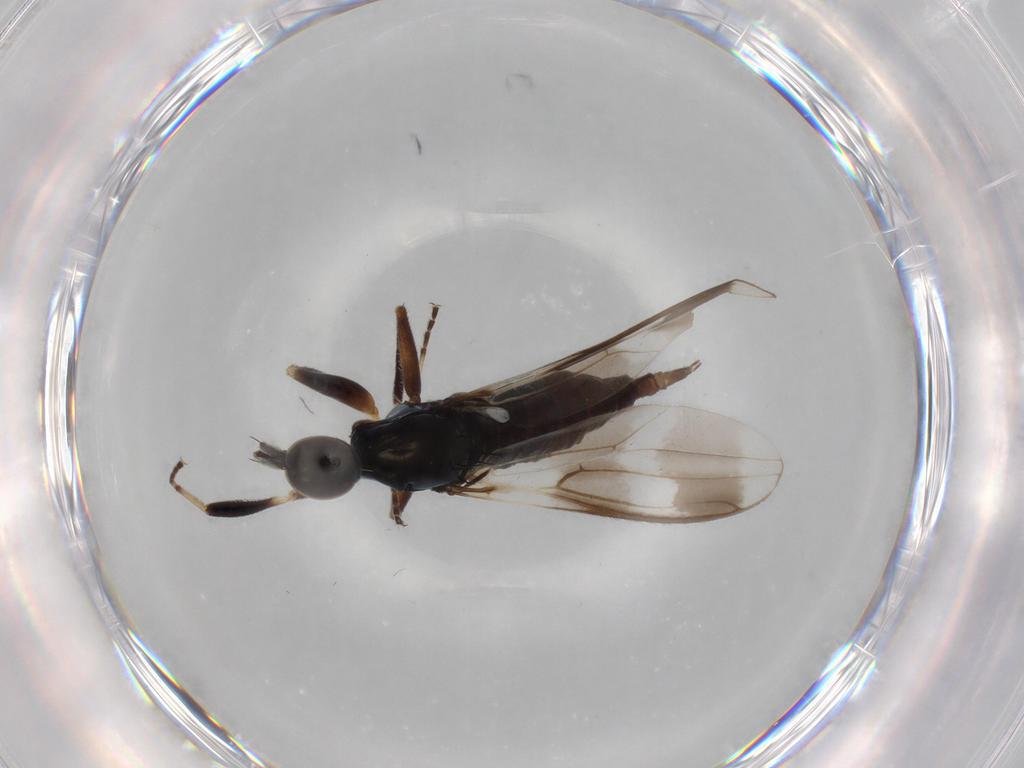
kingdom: Animalia
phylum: Arthropoda
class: Insecta
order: Diptera
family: Hybotidae
